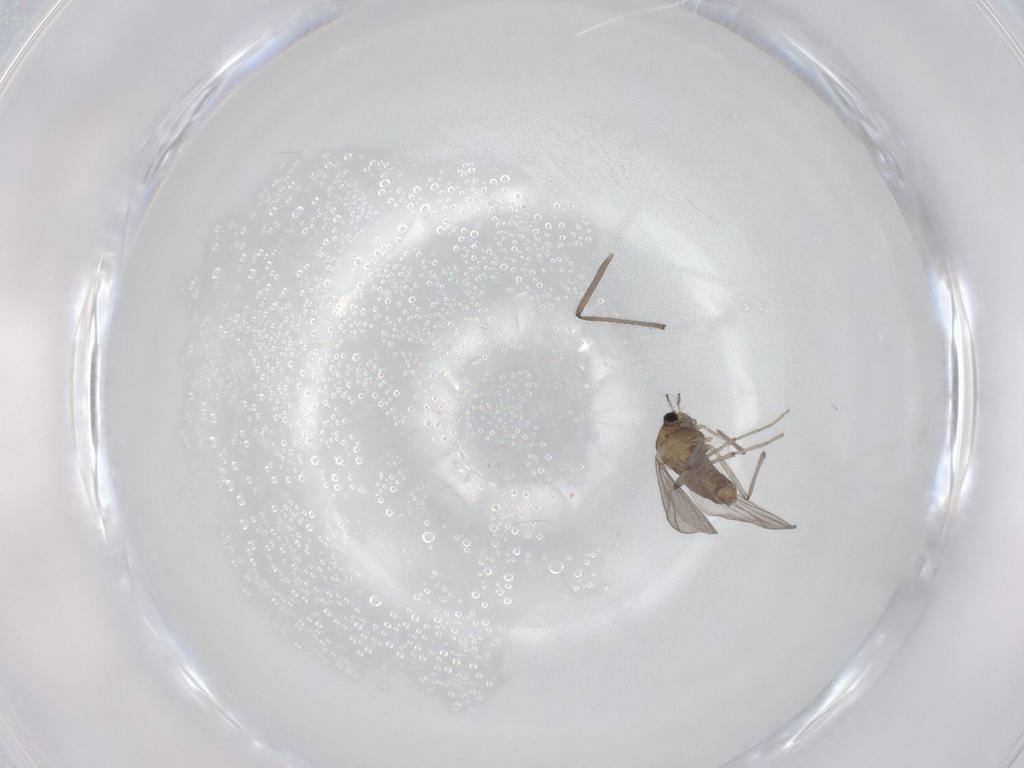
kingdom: Animalia
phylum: Arthropoda
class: Insecta
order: Diptera
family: Chironomidae
